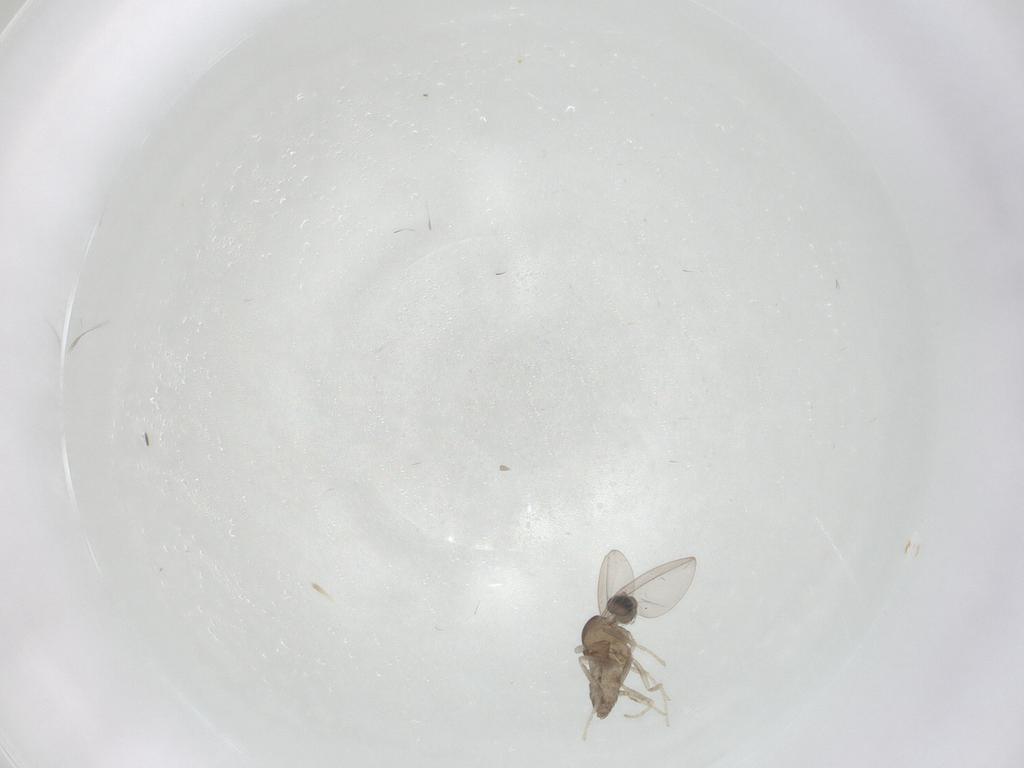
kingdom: Animalia
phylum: Arthropoda
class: Insecta
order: Diptera
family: Cecidomyiidae
